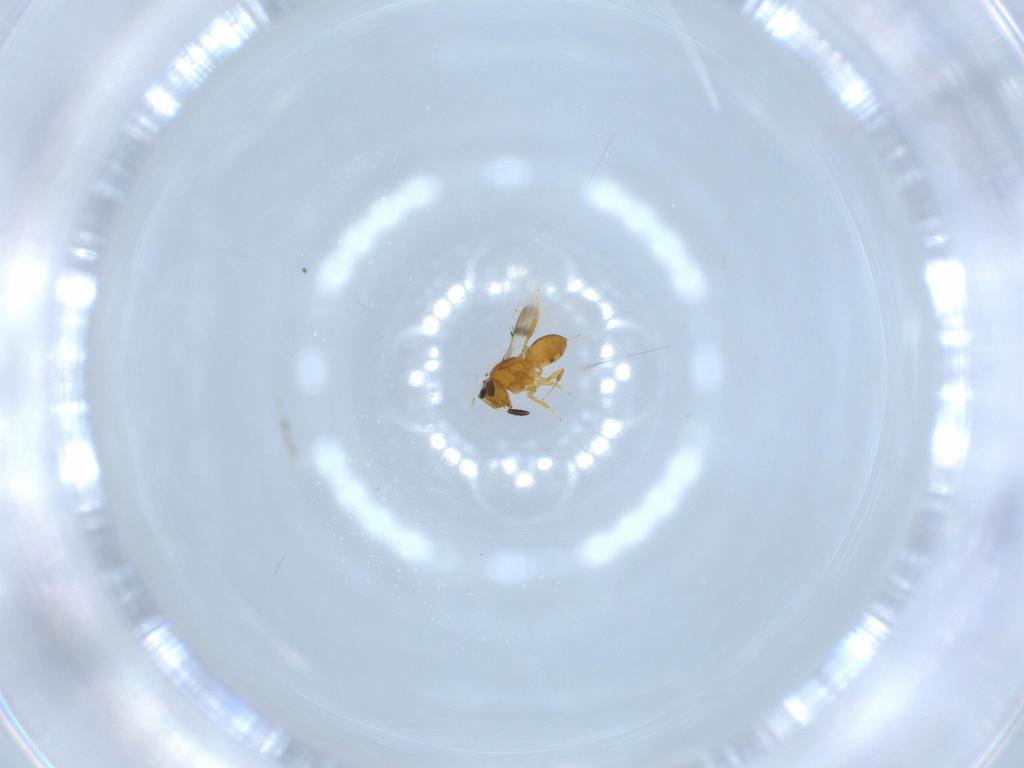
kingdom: Animalia
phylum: Arthropoda
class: Insecta
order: Hymenoptera
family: Scelionidae
